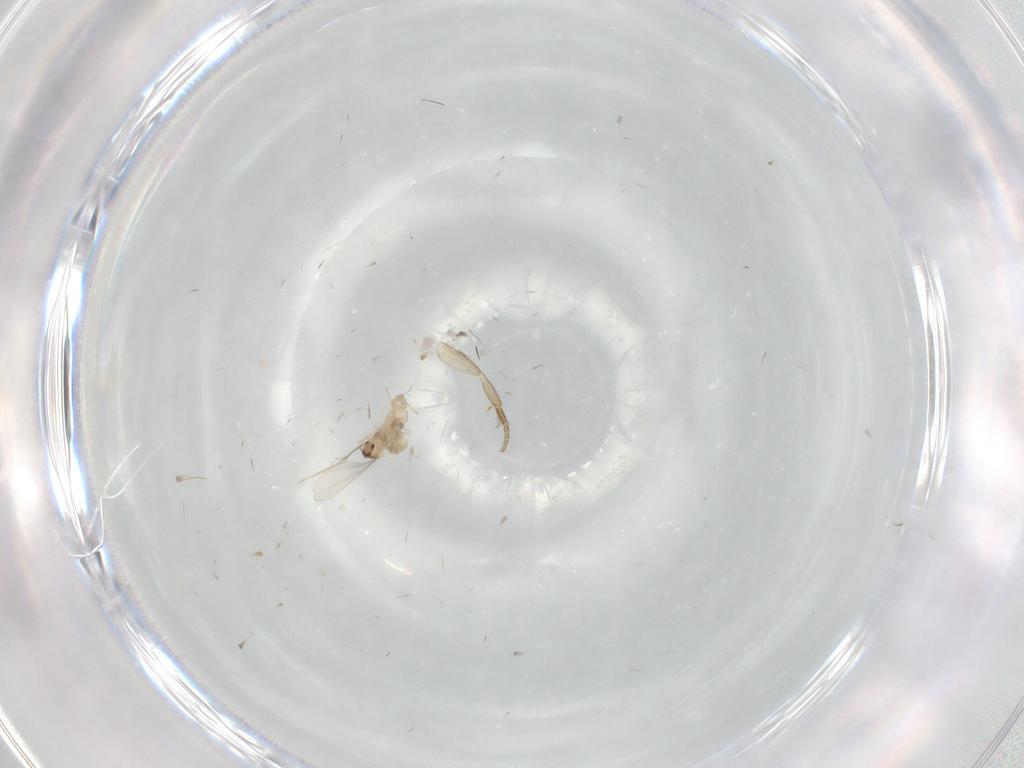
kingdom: Animalia
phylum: Arthropoda
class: Insecta
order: Diptera
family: Cecidomyiidae
